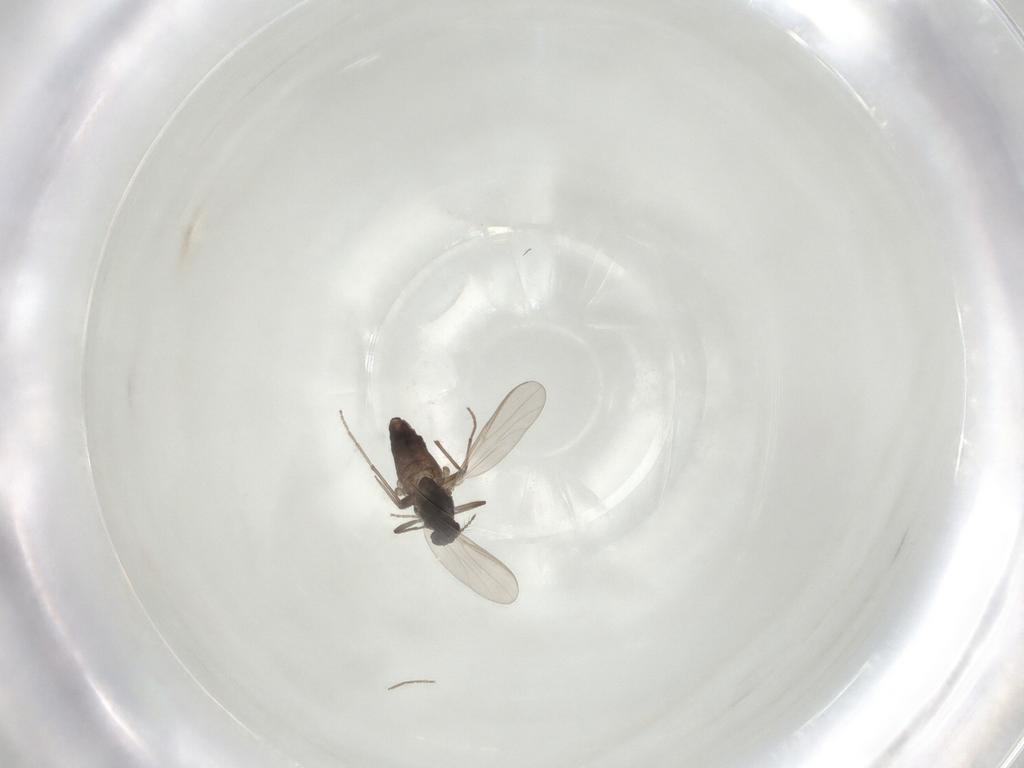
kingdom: Animalia
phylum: Arthropoda
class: Insecta
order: Diptera
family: Chironomidae
